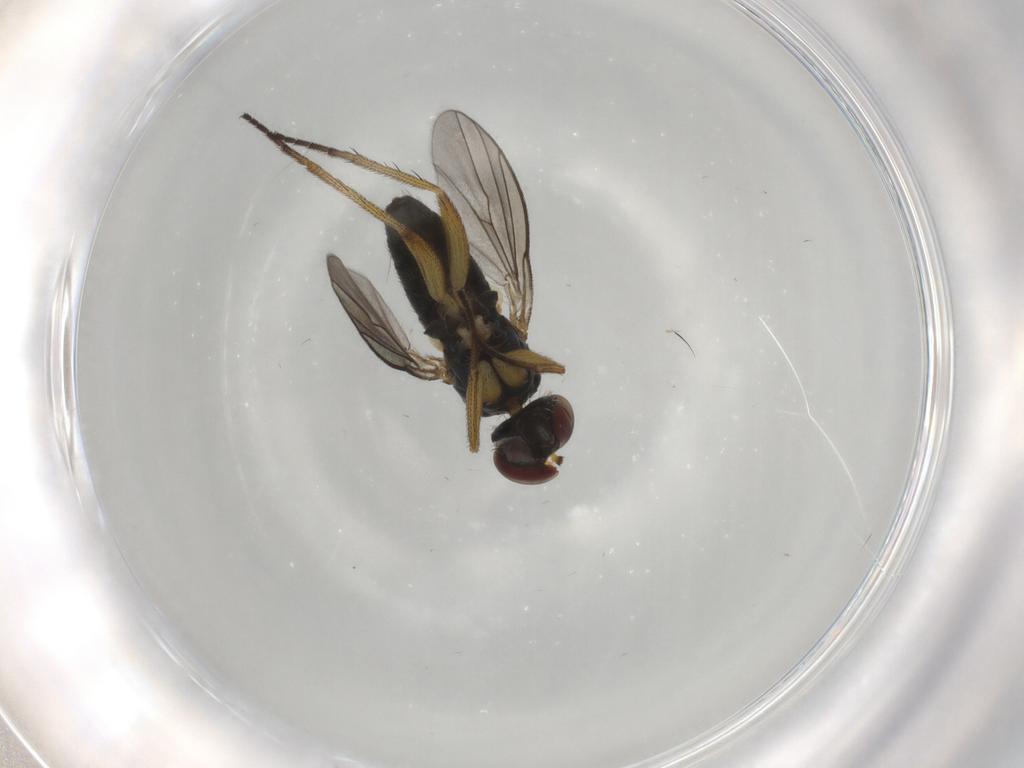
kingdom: Animalia
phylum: Arthropoda
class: Insecta
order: Diptera
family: Dolichopodidae
